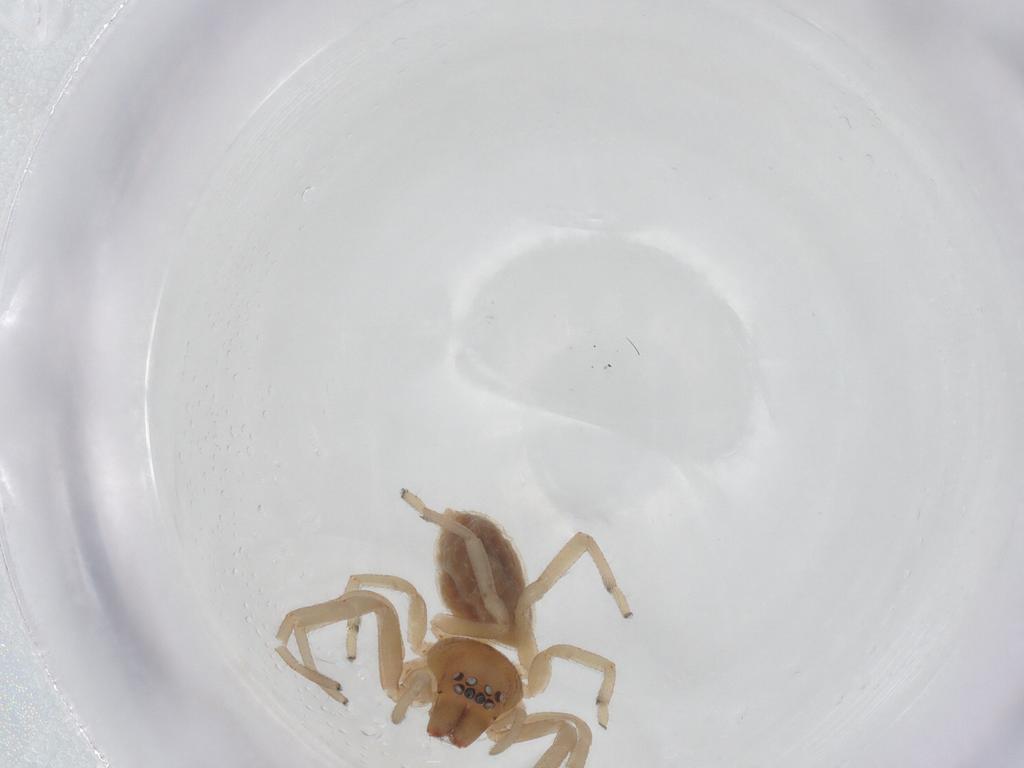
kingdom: Animalia
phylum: Arthropoda
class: Arachnida
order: Araneae
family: Trachelidae
